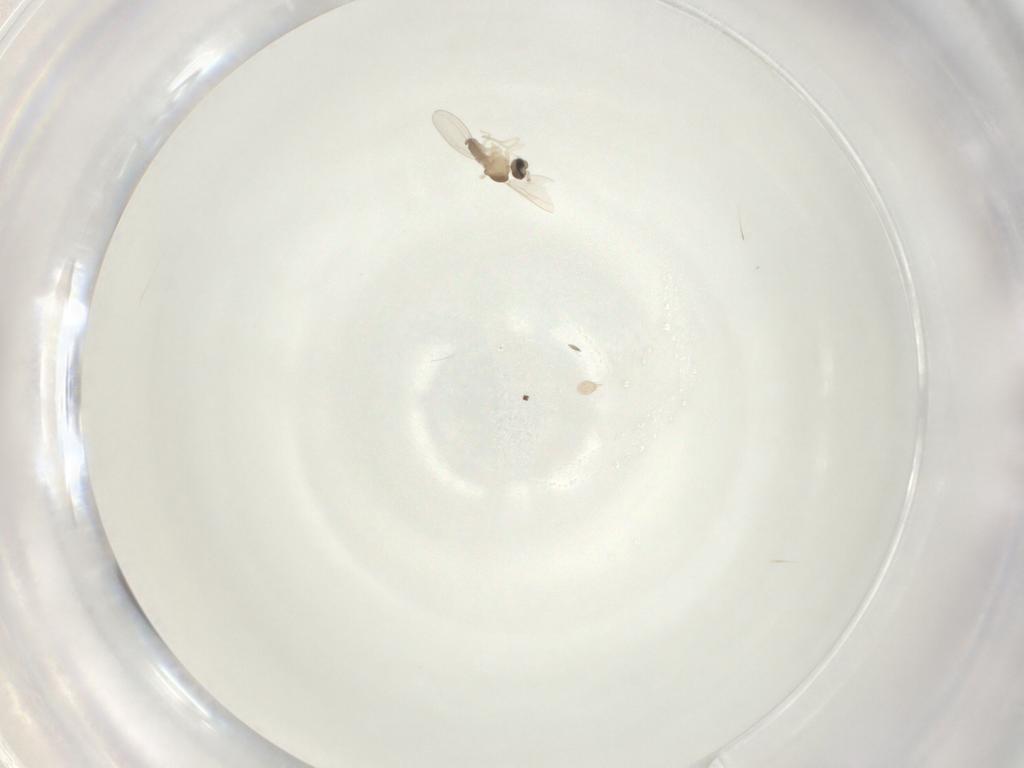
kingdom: Animalia
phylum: Arthropoda
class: Insecta
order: Diptera
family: Cecidomyiidae
